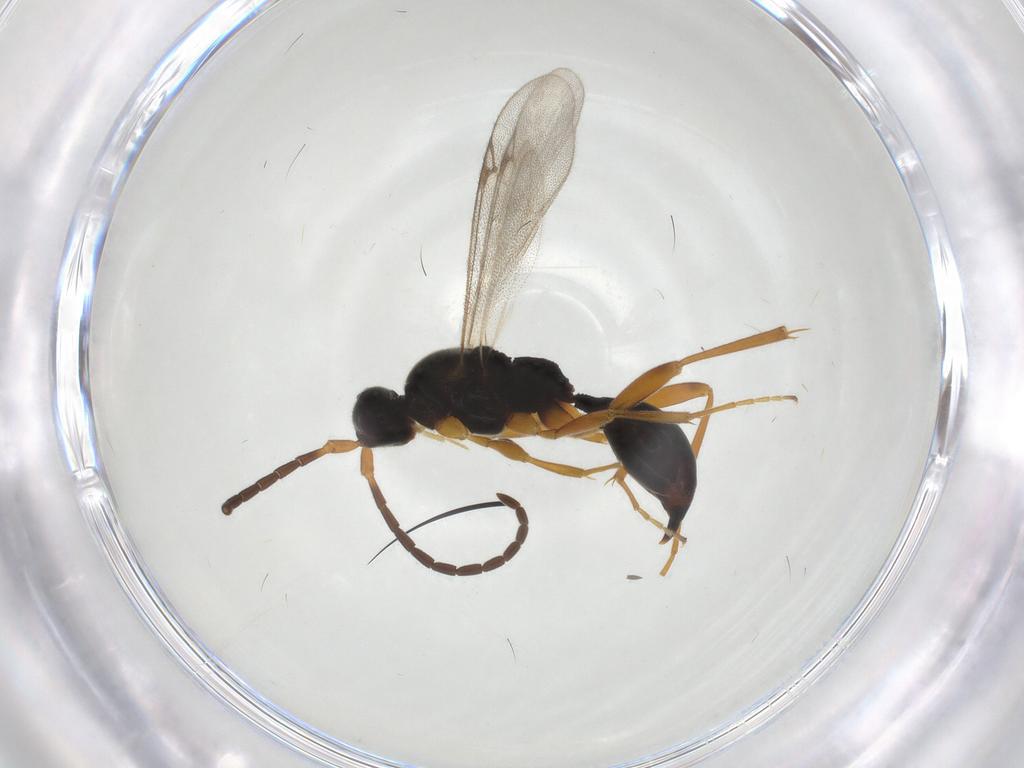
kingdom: Animalia
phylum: Arthropoda
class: Insecta
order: Hymenoptera
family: Proctotrupidae
